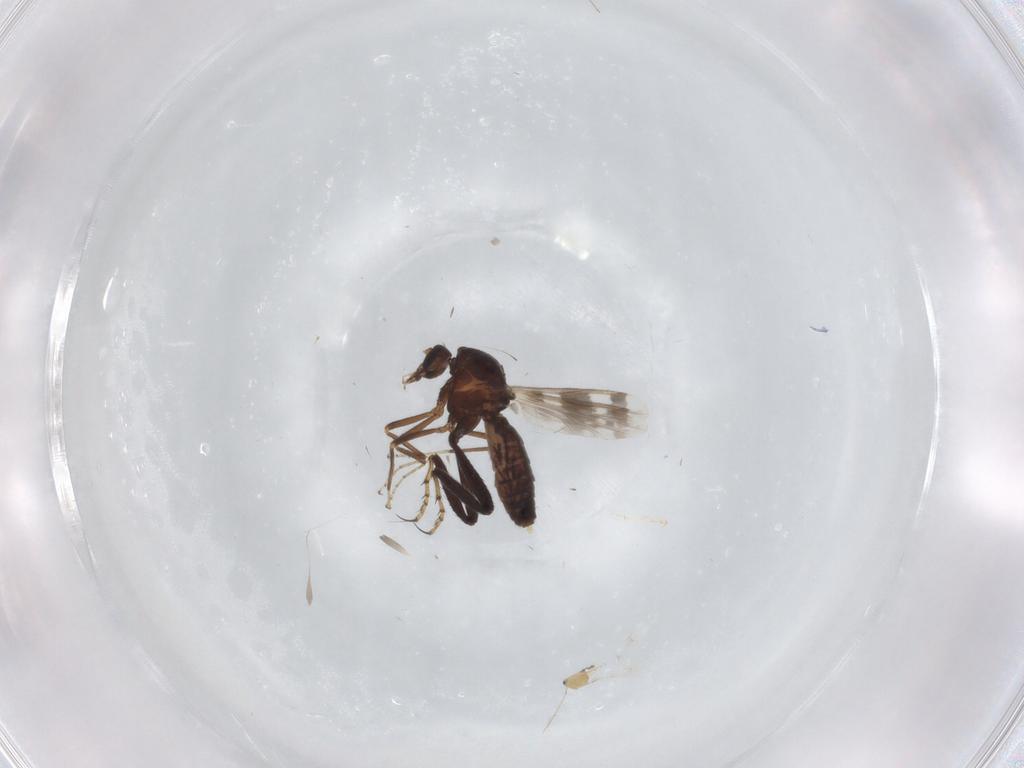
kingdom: Animalia
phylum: Arthropoda
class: Insecta
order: Diptera
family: Ceratopogonidae
